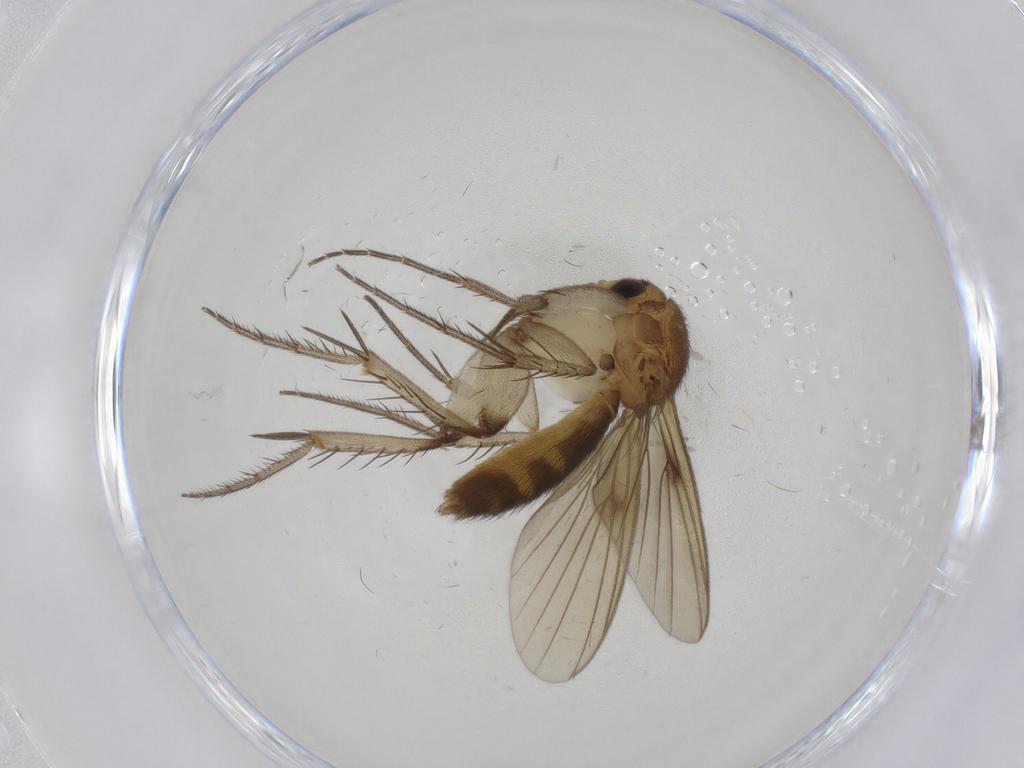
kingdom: Animalia
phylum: Arthropoda
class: Insecta
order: Diptera
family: Mycetophilidae
